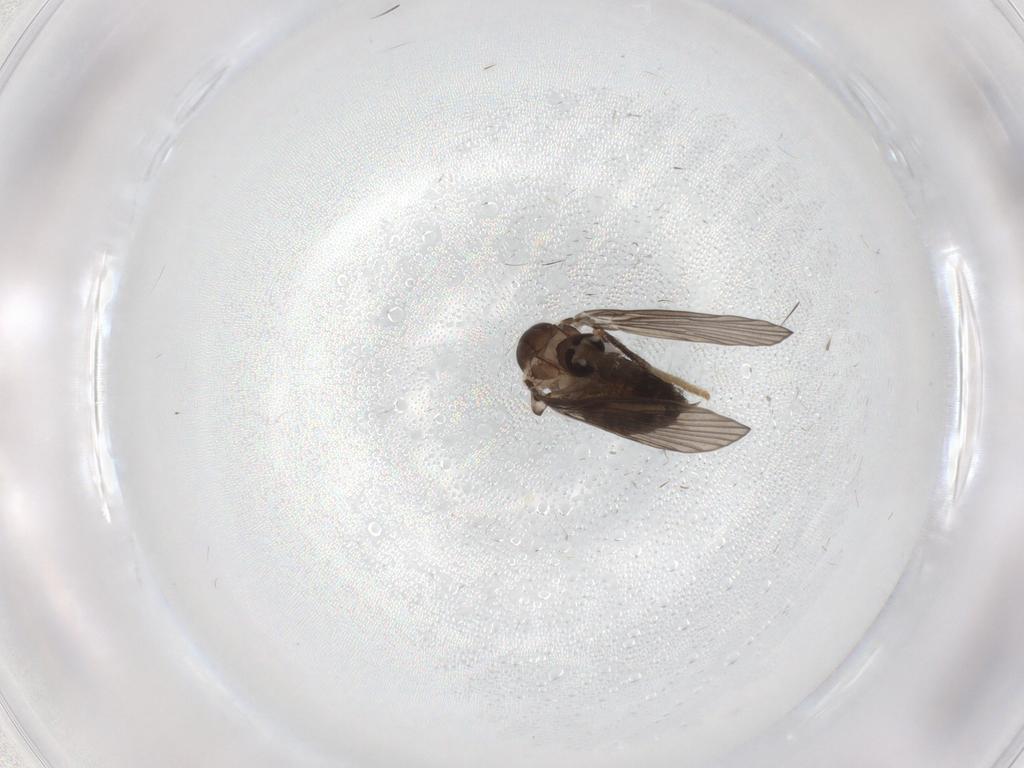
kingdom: Animalia
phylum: Arthropoda
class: Insecta
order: Diptera
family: Psychodidae
